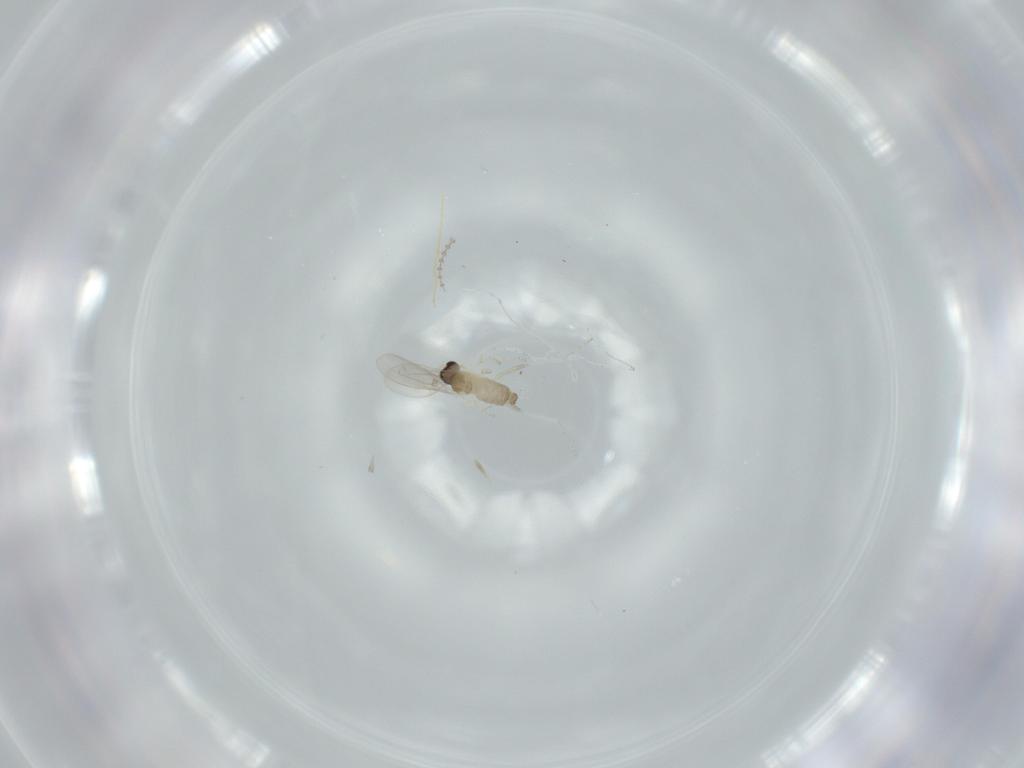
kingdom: Animalia
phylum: Arthropoda
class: Insecta
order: Diptera
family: Cecidomyiidae
